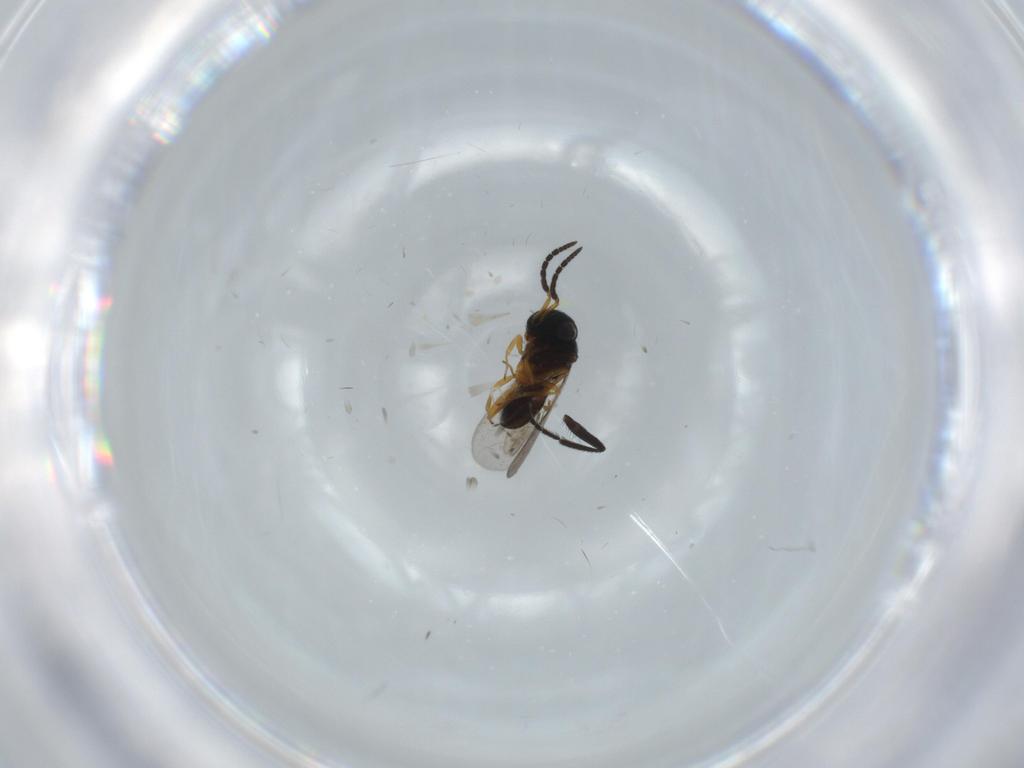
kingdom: Animalia
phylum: Arthropoda
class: Insecta
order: Hymenoptera
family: Scelionidae
